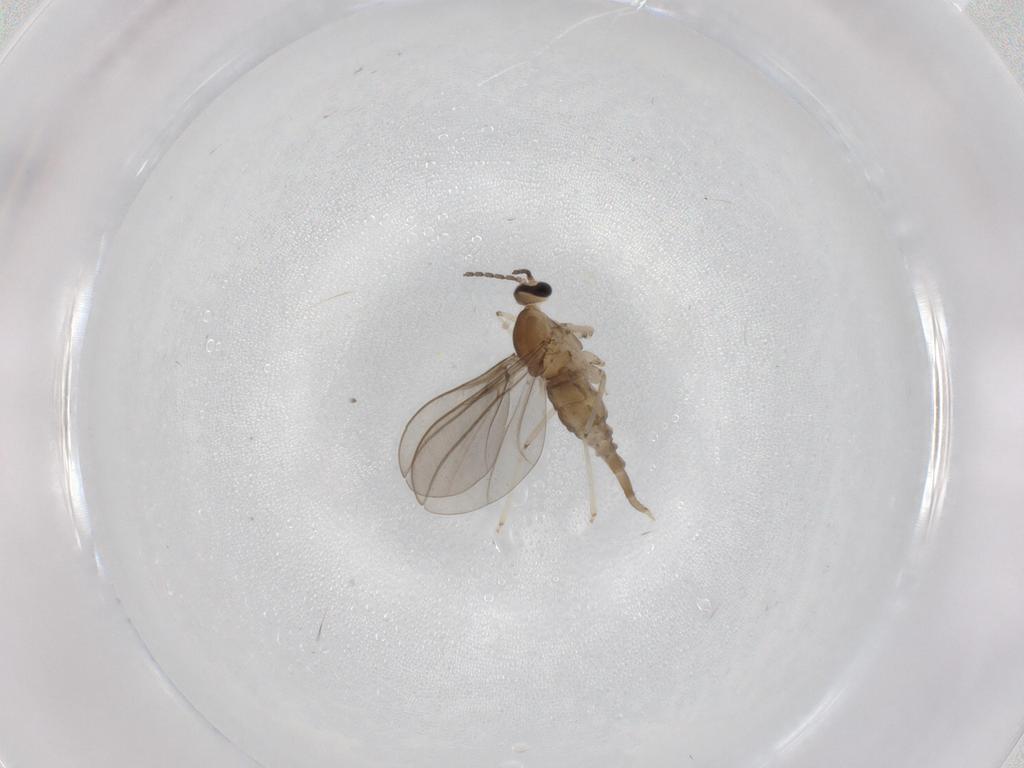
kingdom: Animalia
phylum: Arthropoda
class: Insecta
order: Diptera
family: Cecidomyiidae
